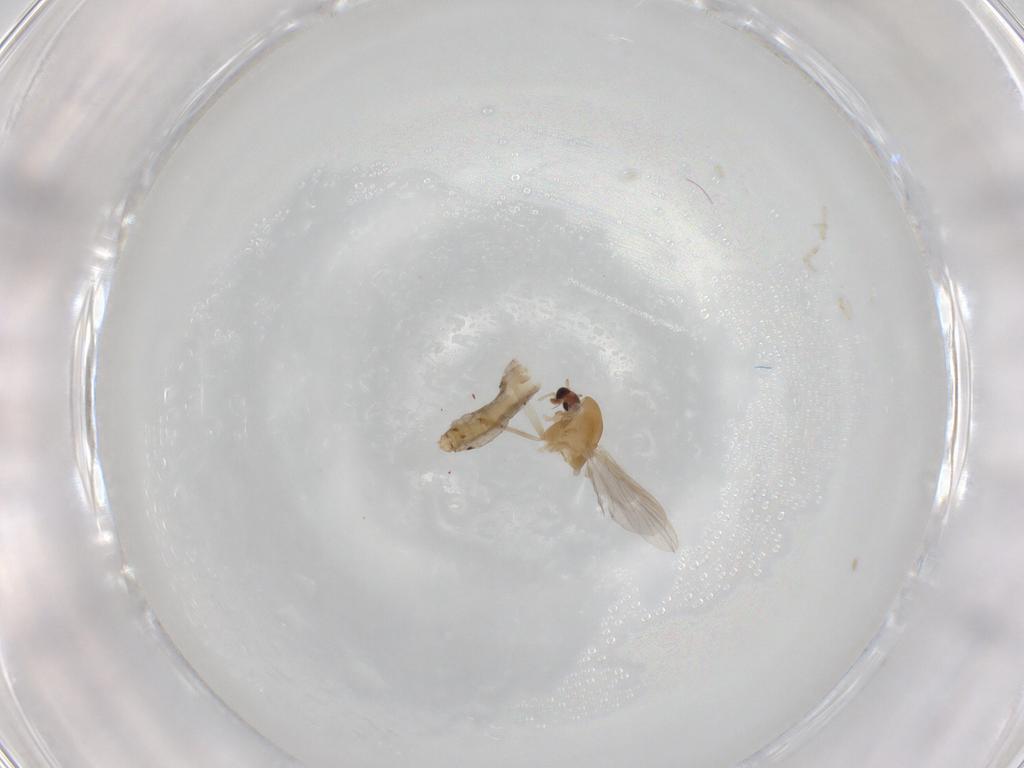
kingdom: Animalia
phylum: Arthropoda
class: Insecta
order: Diptera
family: Chironomidae
